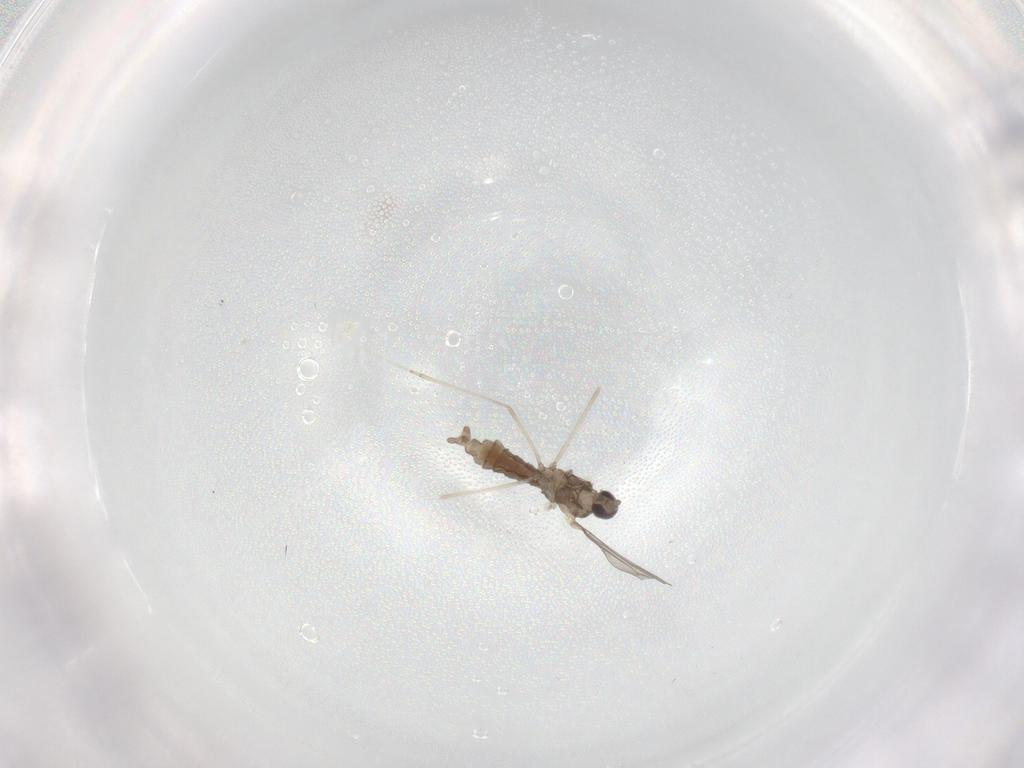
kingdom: Animalia
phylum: Arthropoda
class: Insecta
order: Diptera
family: Cecidomyiidae
